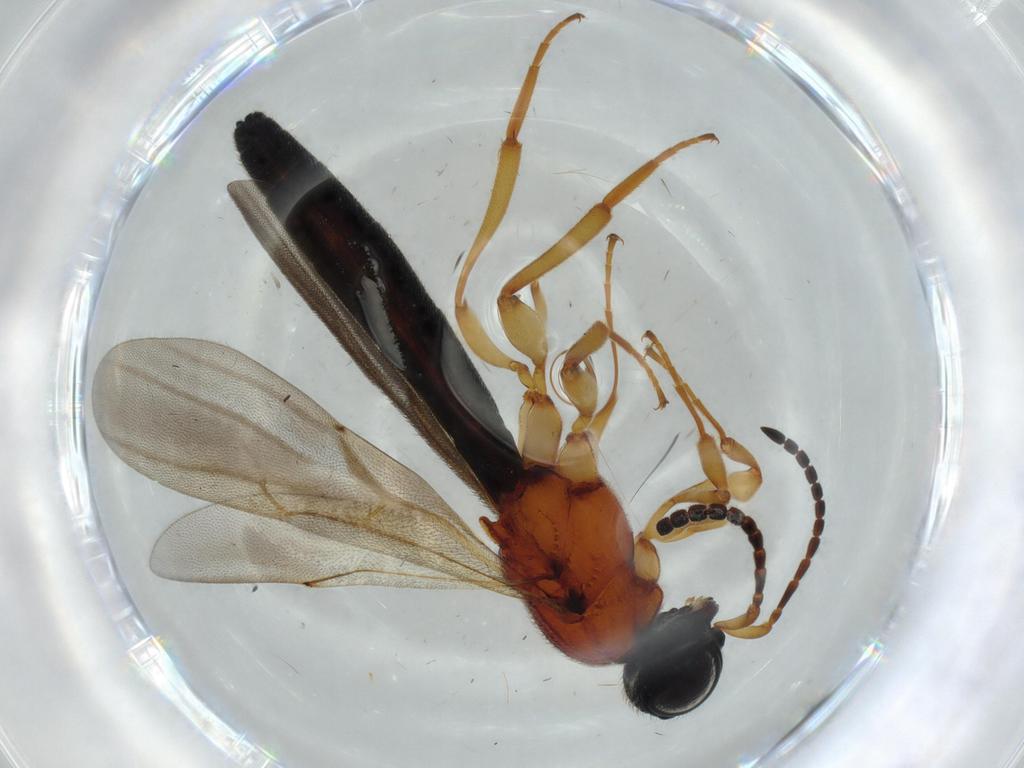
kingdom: Animalia
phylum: Arthropoda
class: Insecta
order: Hymenoptera
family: Scelionidae
